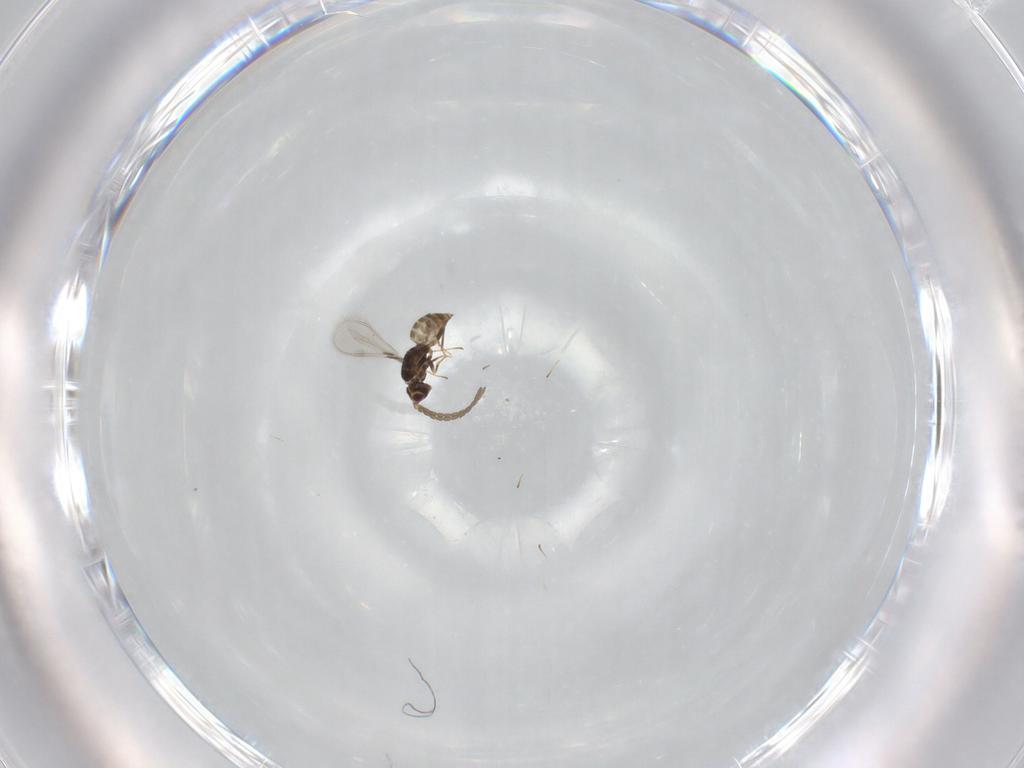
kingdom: Animalia
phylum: Arthropoda
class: Insecta
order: Hymenoptera
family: Mymaridae
